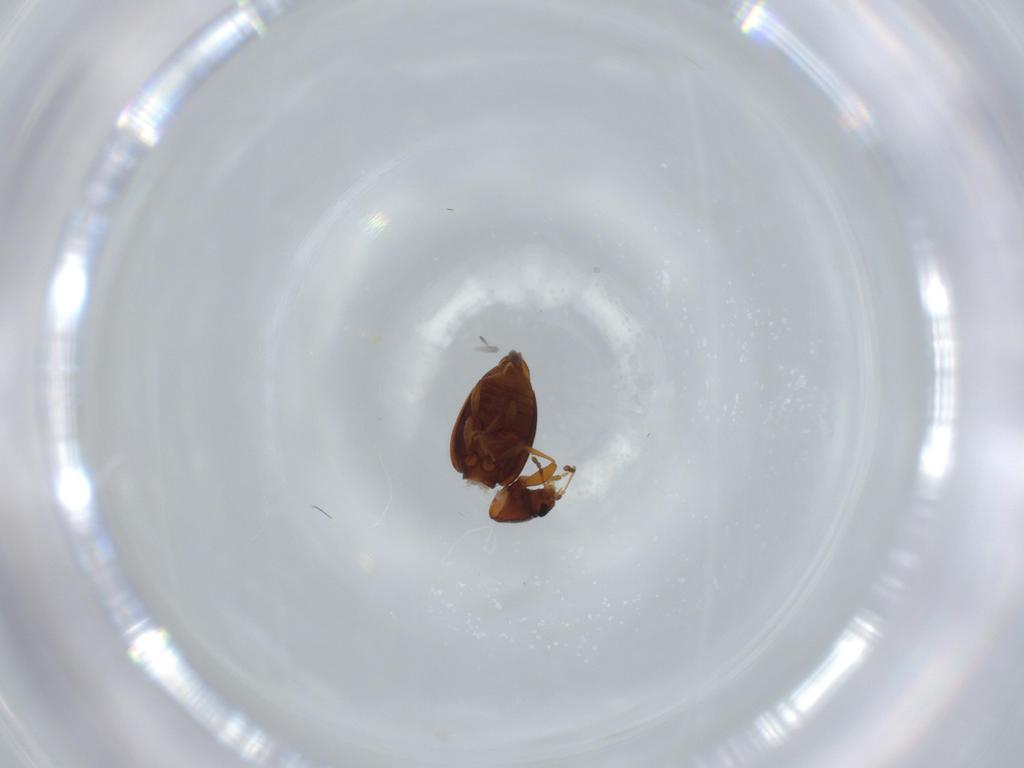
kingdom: Animalia
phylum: Arthropoda
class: Insecta
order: Coleoptera
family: Latridiidae
